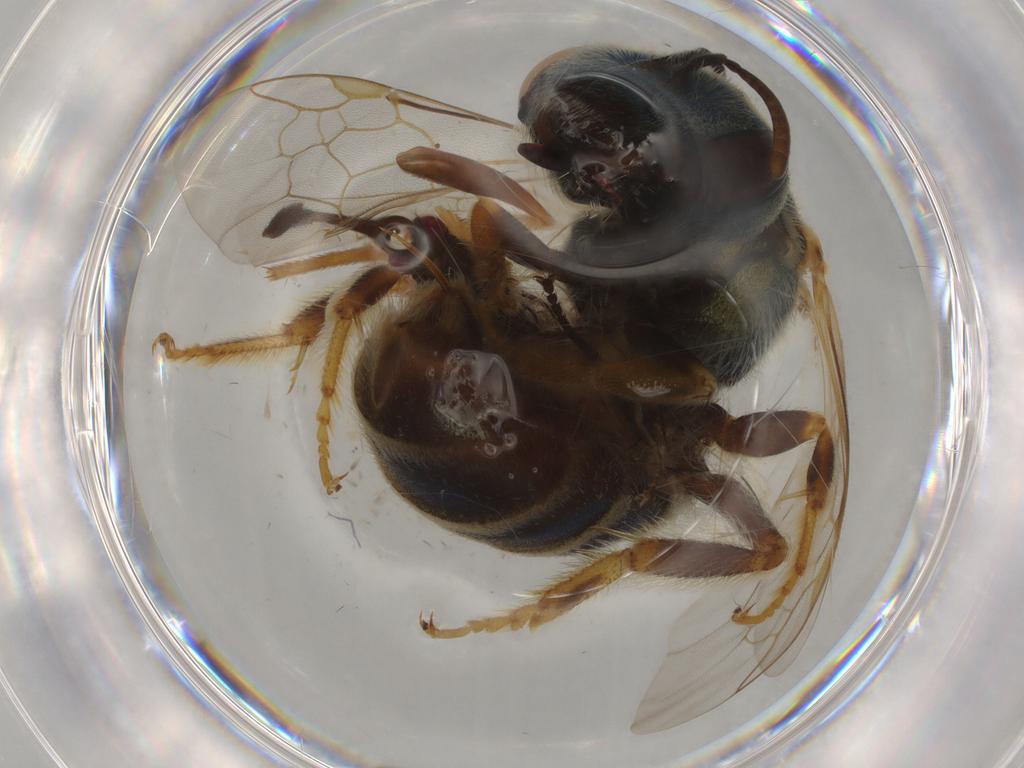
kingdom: Animalia
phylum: Arthropoda
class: Insecta
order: Hymenoptera
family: Halictidae
